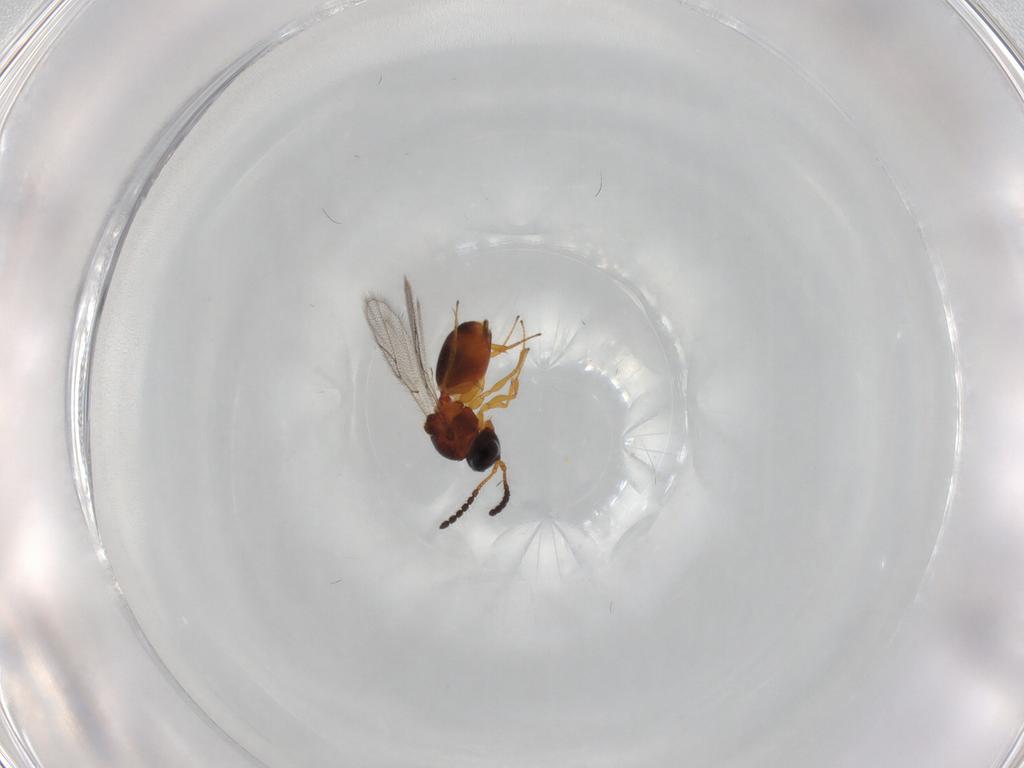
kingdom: Animalia
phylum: Arthropoda
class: Insecta
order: Hymenoptera
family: Figitidae
